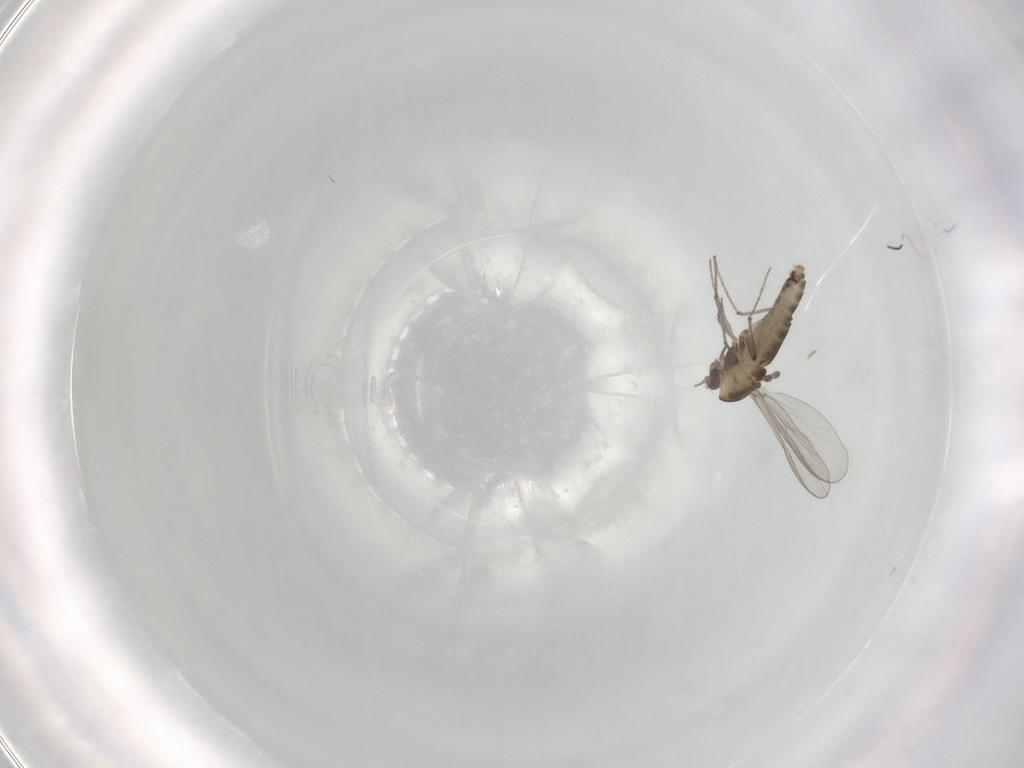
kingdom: Animalia
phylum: Arthropoda
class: Insecta
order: Diptera
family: Chironomidae
